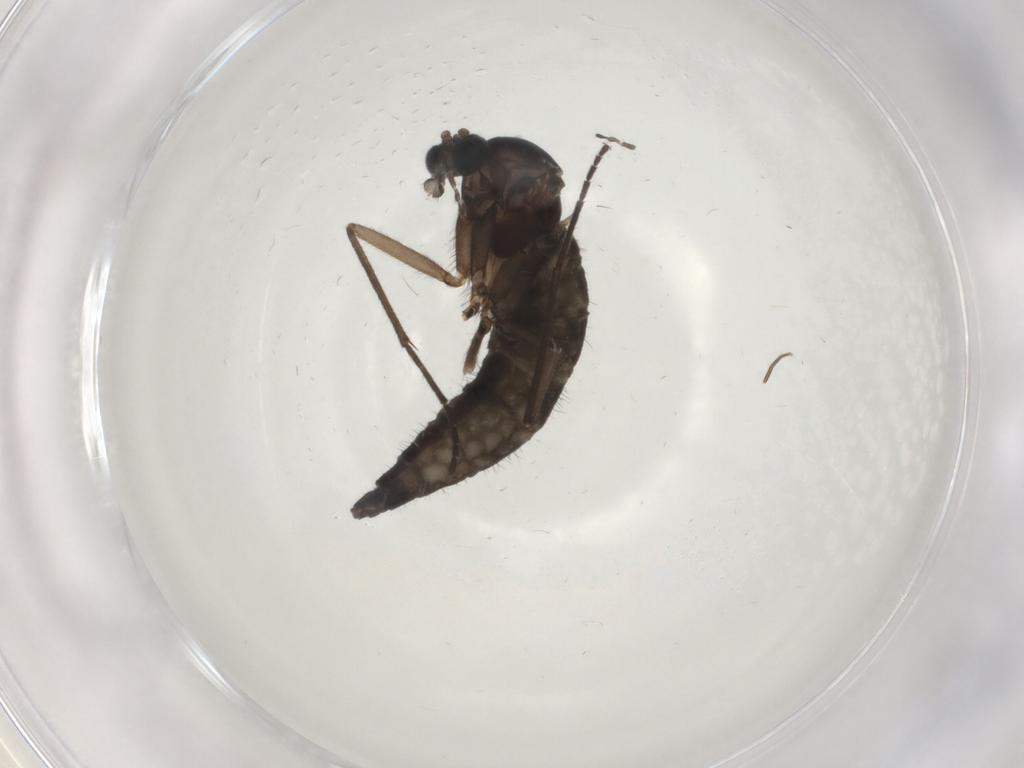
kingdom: Animalia
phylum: Arthropoda
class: Insecta
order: Diptera
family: Sciaridae
